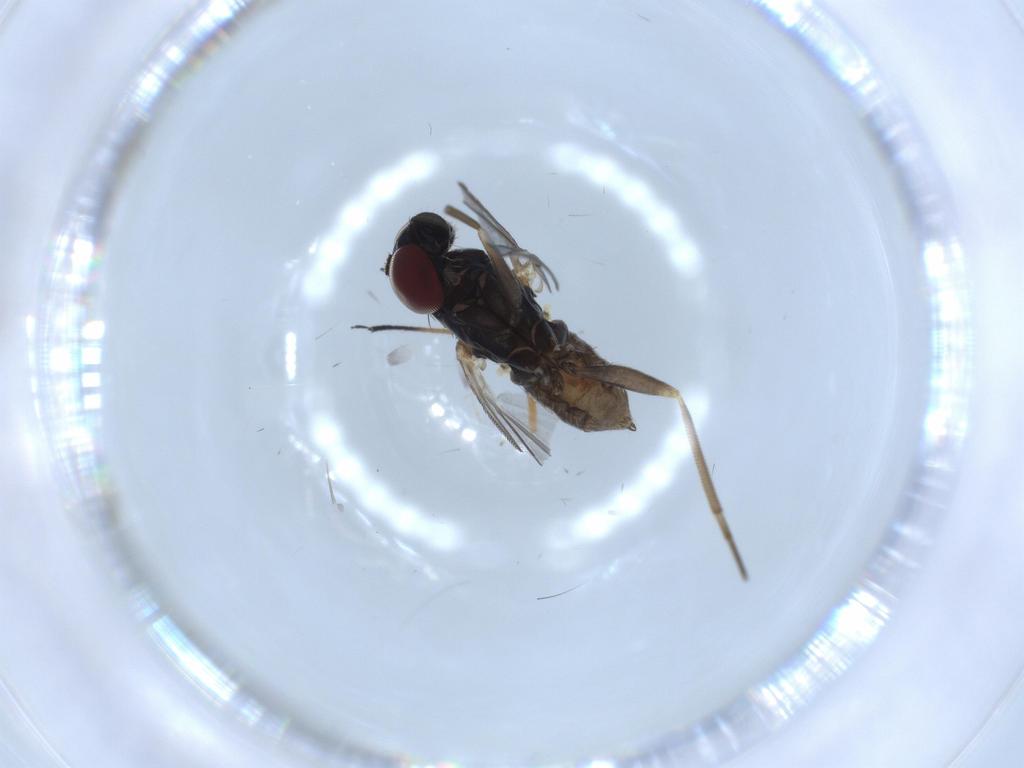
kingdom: Animalia
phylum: Arthropoda
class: Insecta
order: Diptera
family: Dolichopodidae
